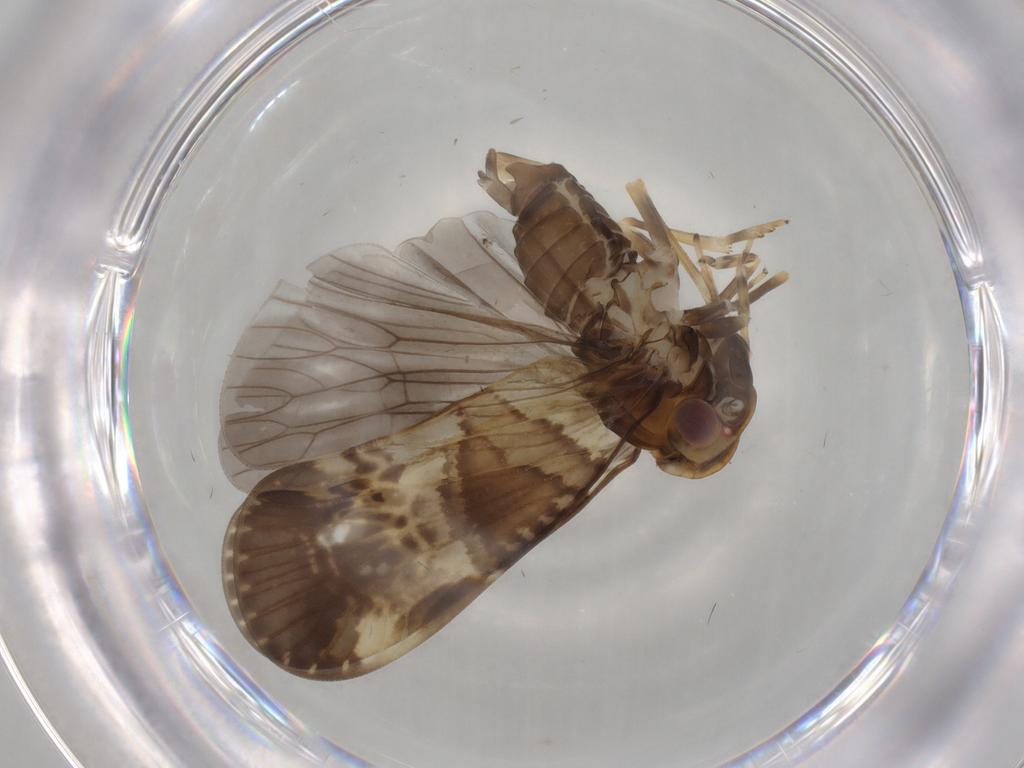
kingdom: Animalia
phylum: Arthropoda
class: Insecta
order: Hemiptera
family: Cixiidae
